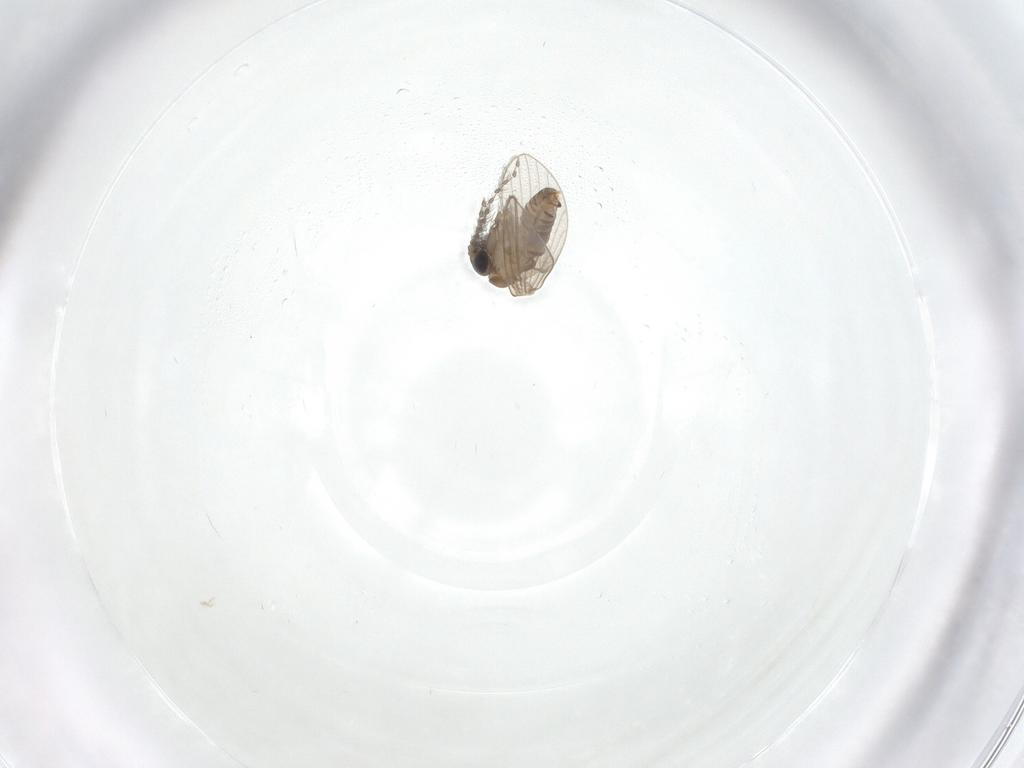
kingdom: Animalia
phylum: Arthropoda
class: Insecta
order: Diptera
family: Psychodidae
